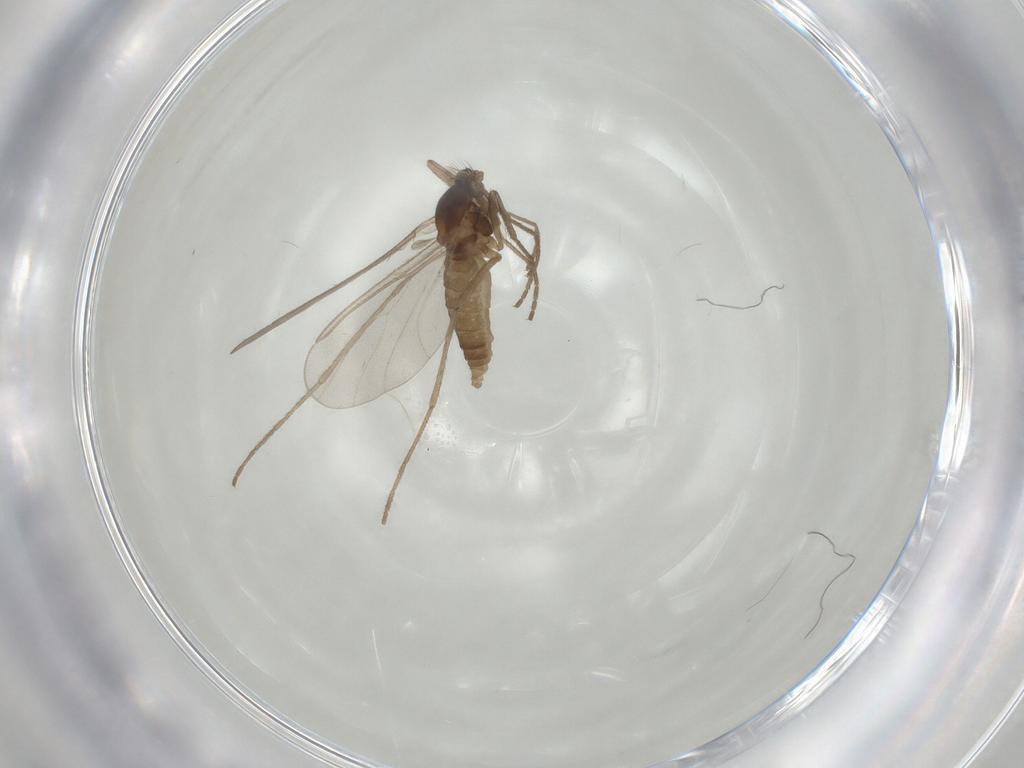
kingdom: Animalia
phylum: Arthropoda
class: Insecta
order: Diptera
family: Cecidomyiidae
